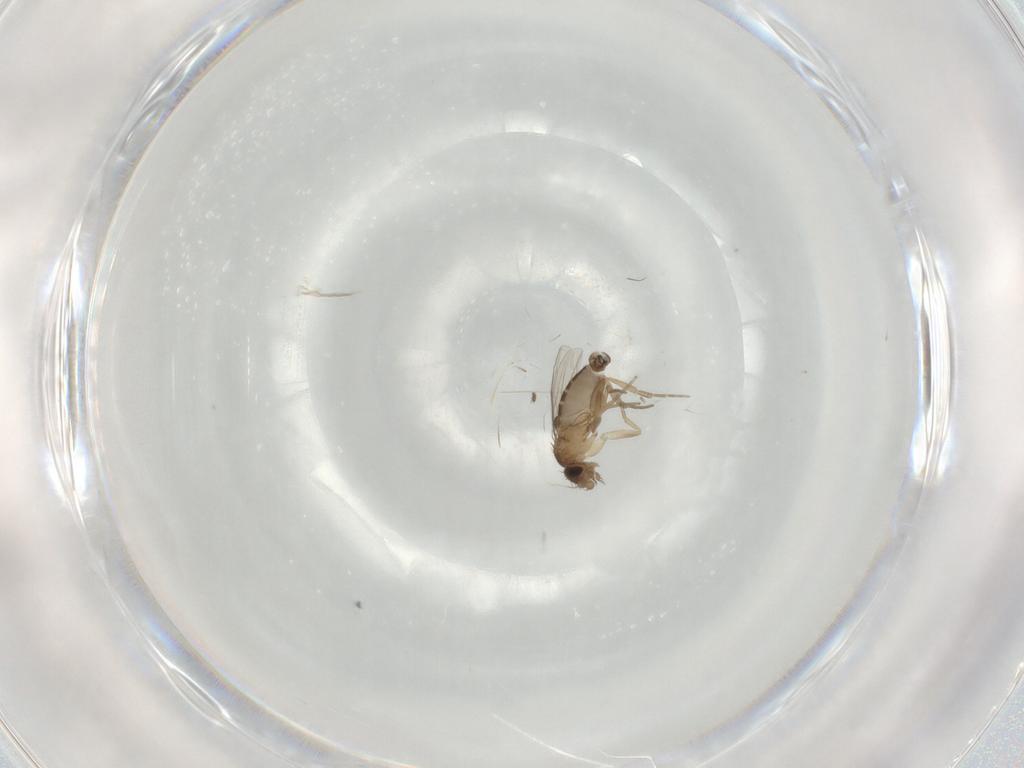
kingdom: Animalia
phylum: Arthropoda
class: Insecta
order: Diptera
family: Phoridae
